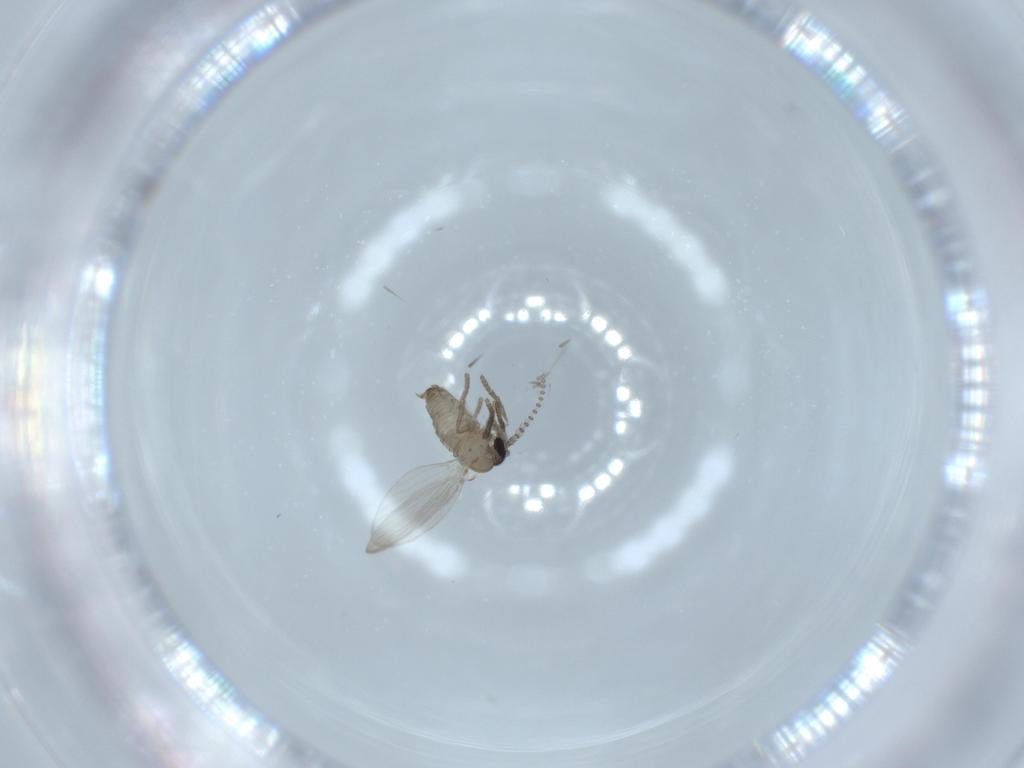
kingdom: Animalia
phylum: Arthropoda
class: Insecta
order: Diptera
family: Psychodidae
